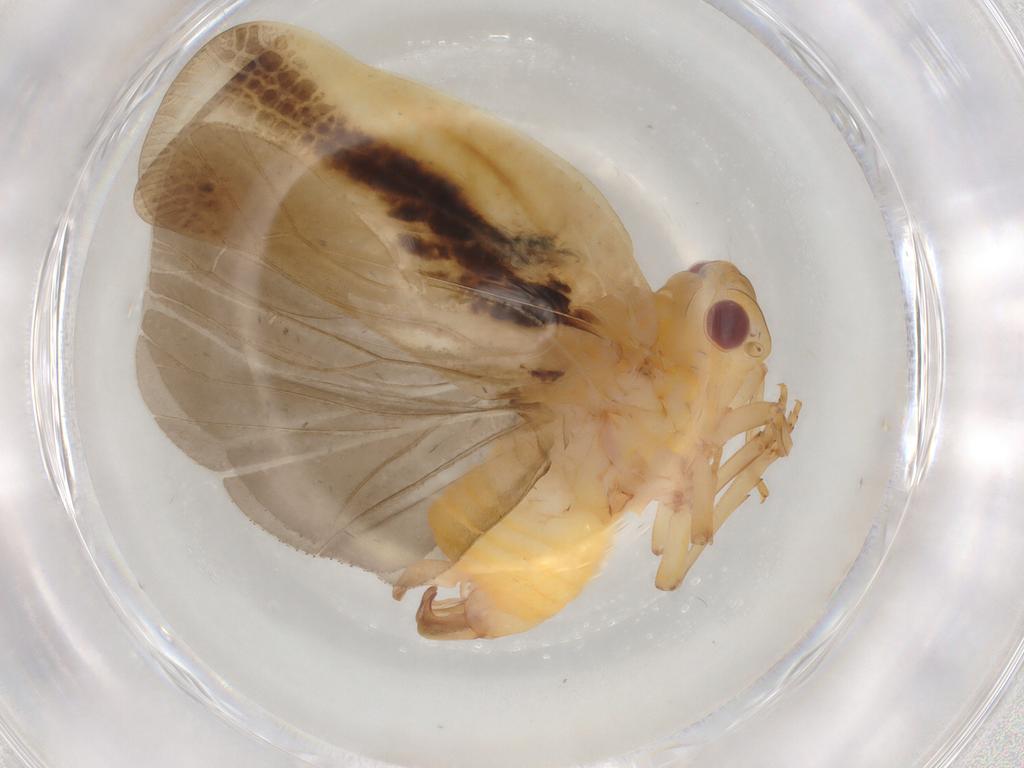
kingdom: Animalia
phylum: Arthropoda
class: Insecta
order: Hemiptera
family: Flatidae
